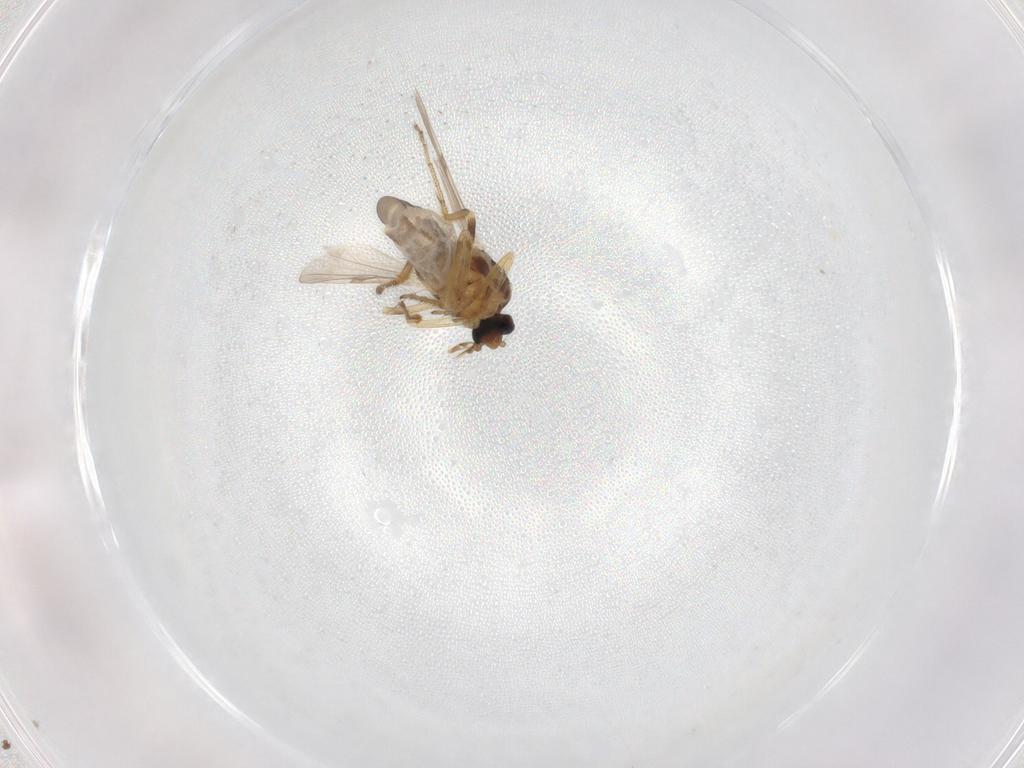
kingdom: Animalia
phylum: Arthropoda
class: Insecta
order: Diptera
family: Ceratopogonidae
